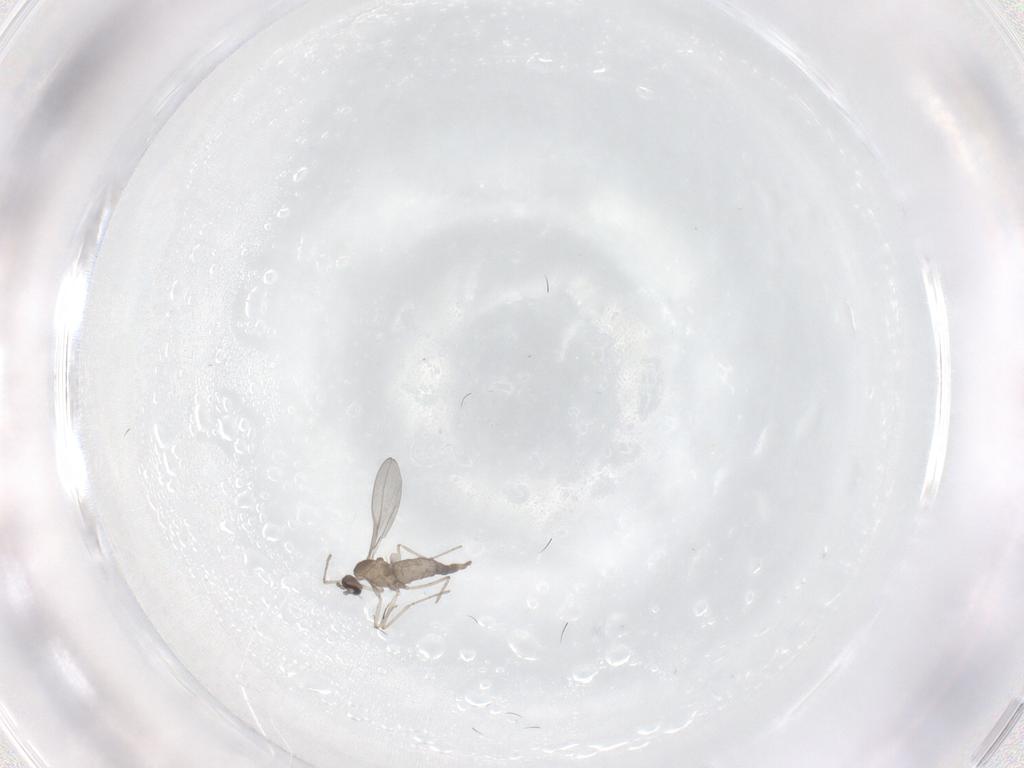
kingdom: Animalia
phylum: Arthropoda
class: Insecta
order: Diptera
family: Cecidomyiidae
